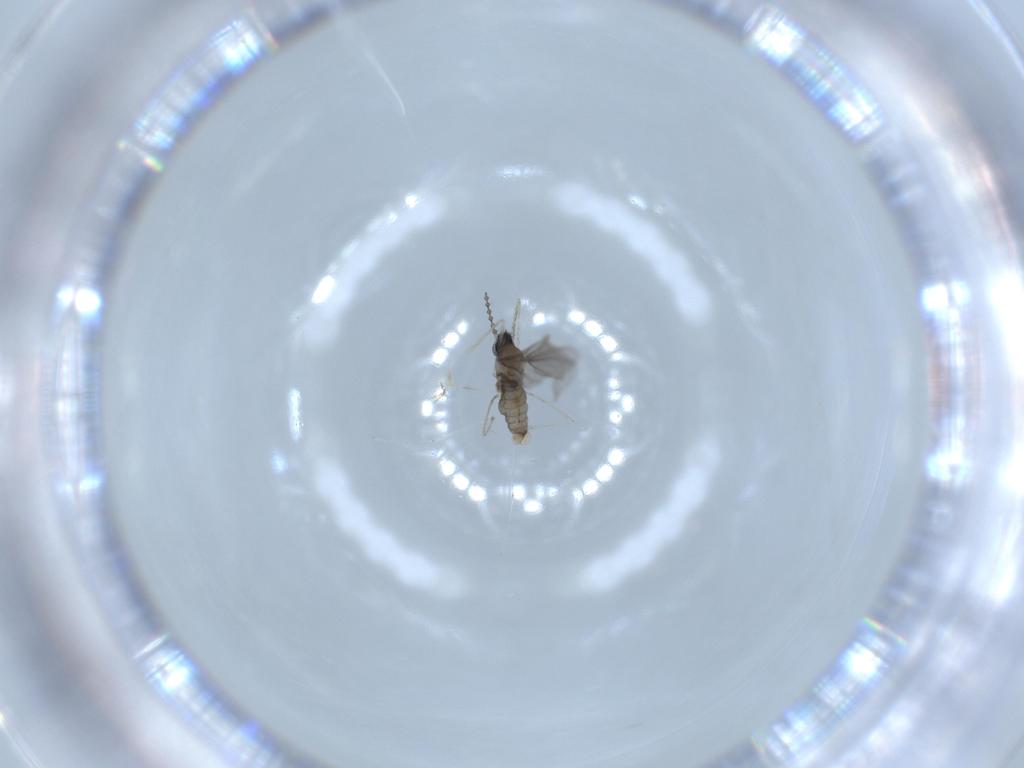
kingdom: Animalia
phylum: Arthropoda
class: Insecta
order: Diptera
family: Cecidomyiidae
